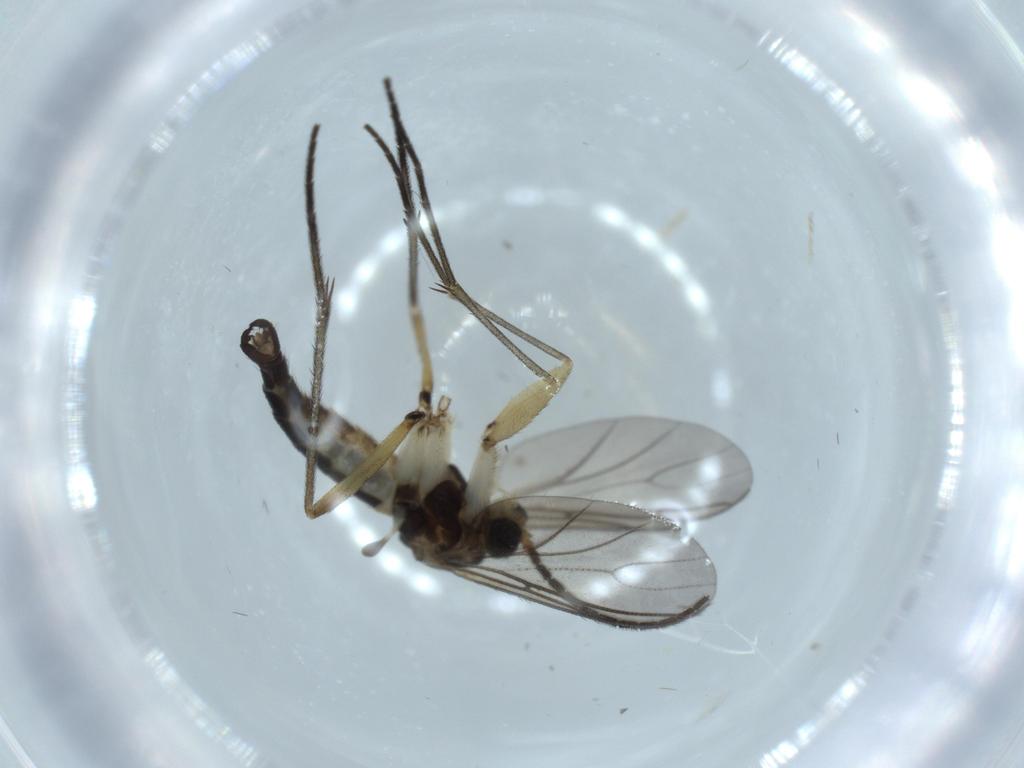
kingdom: Animalia
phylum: Arthropoda
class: Insecta
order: Diptera
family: Sciaridae
